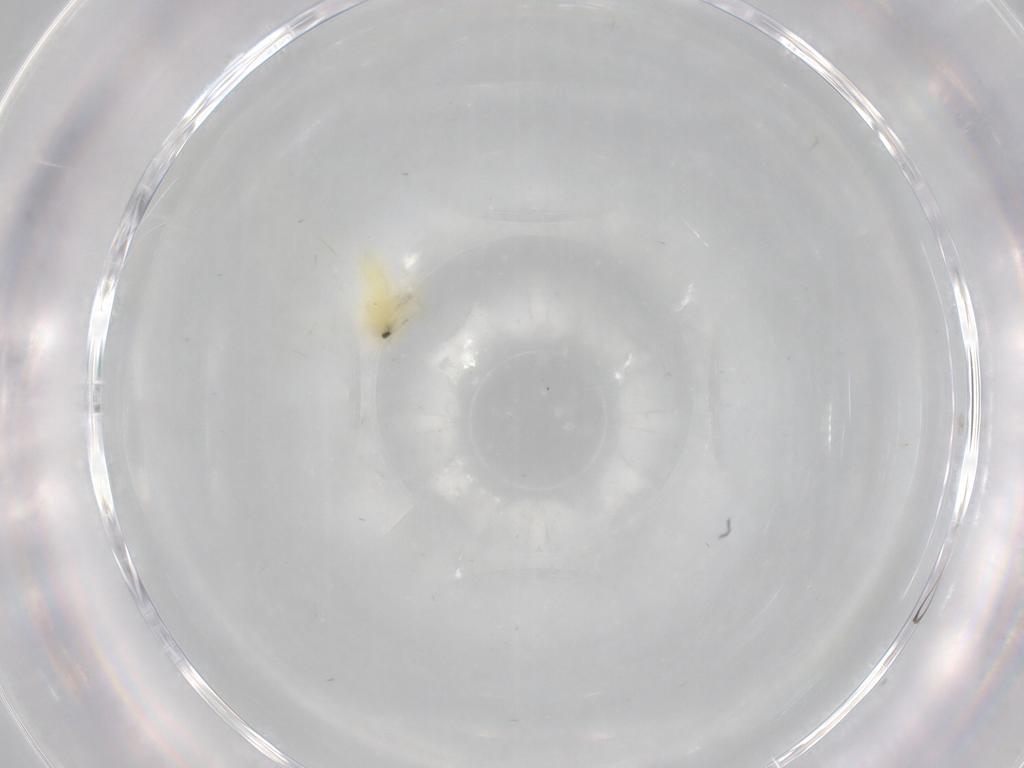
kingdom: Animalia
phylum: Arthropoda
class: Insecta
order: Hemiptera
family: Aleyrodidae
